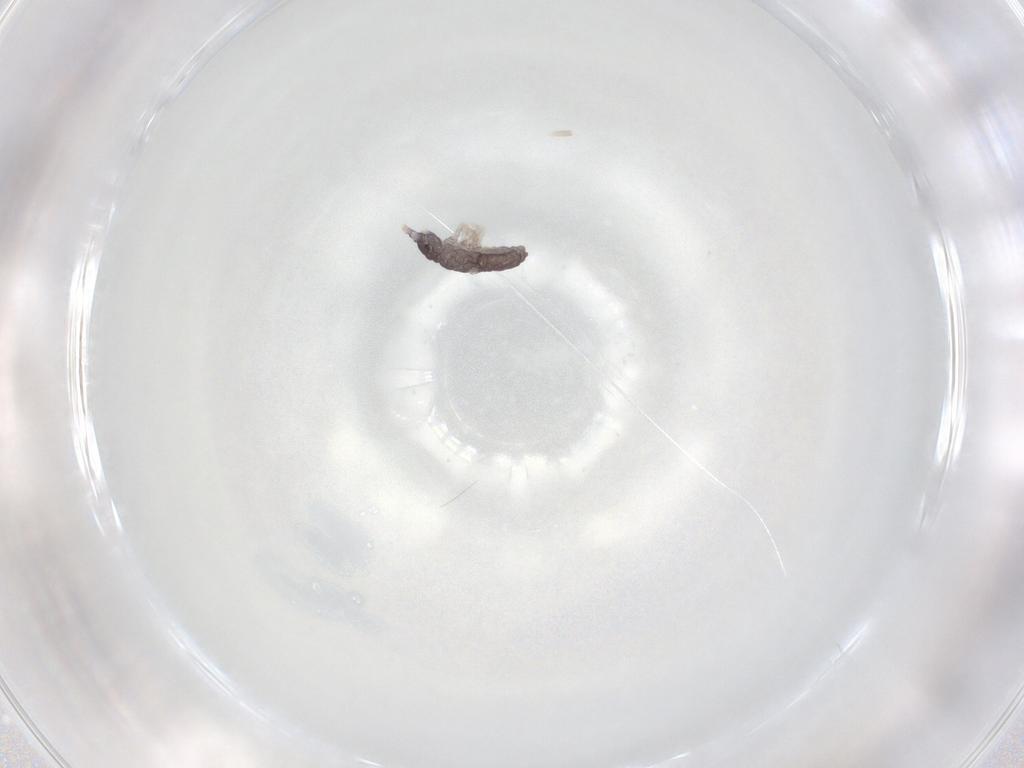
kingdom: Animalia
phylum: Arthropoda
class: Collembola
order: Poduromorpha
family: Neanuridae
